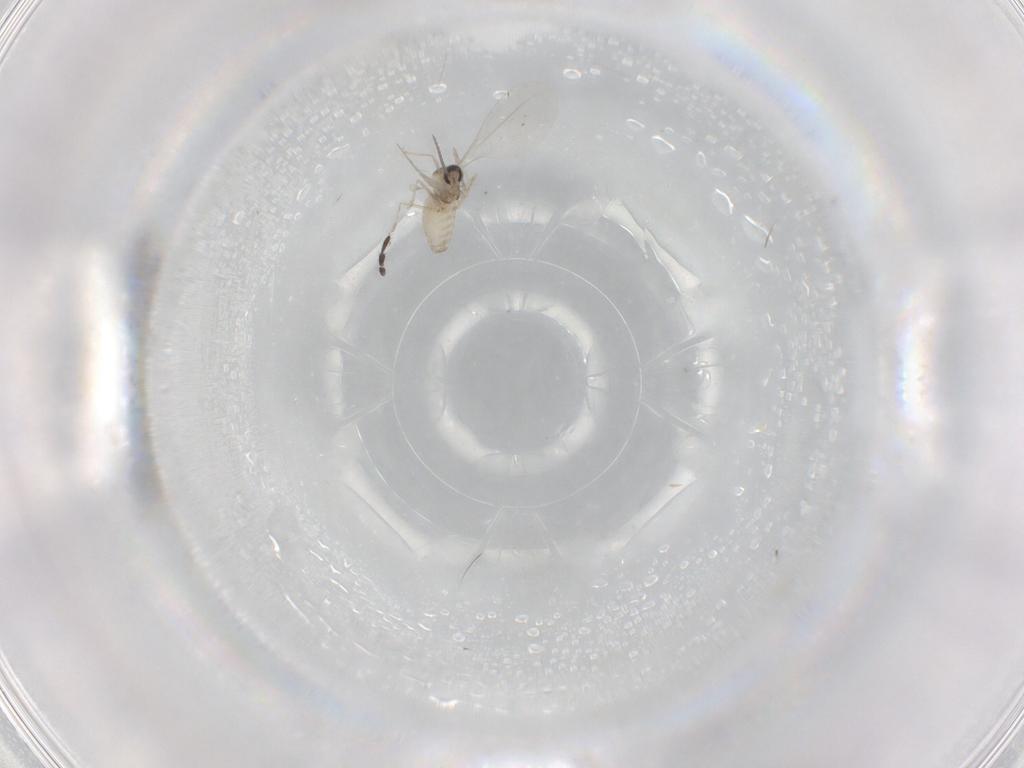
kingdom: Animalia
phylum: Arthropoda
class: Insecta
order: Diptera
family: Cecidomyiidae
